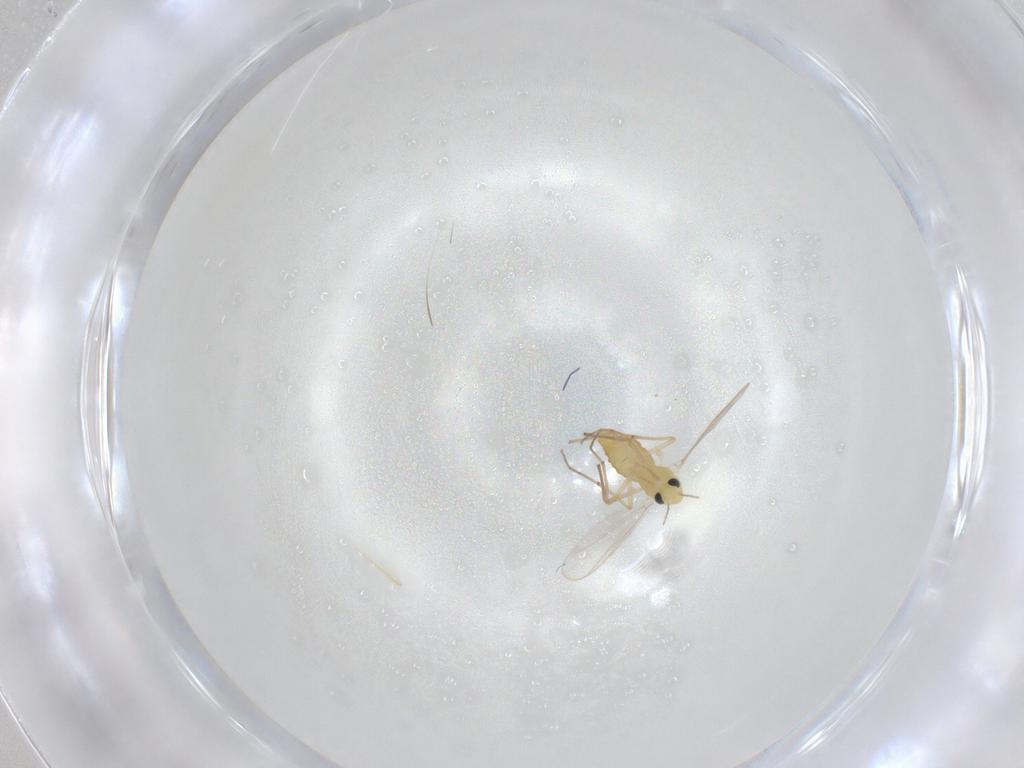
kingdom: Animalia
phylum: Arthropoda
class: Insecta
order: Diptera
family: Chironomidae
